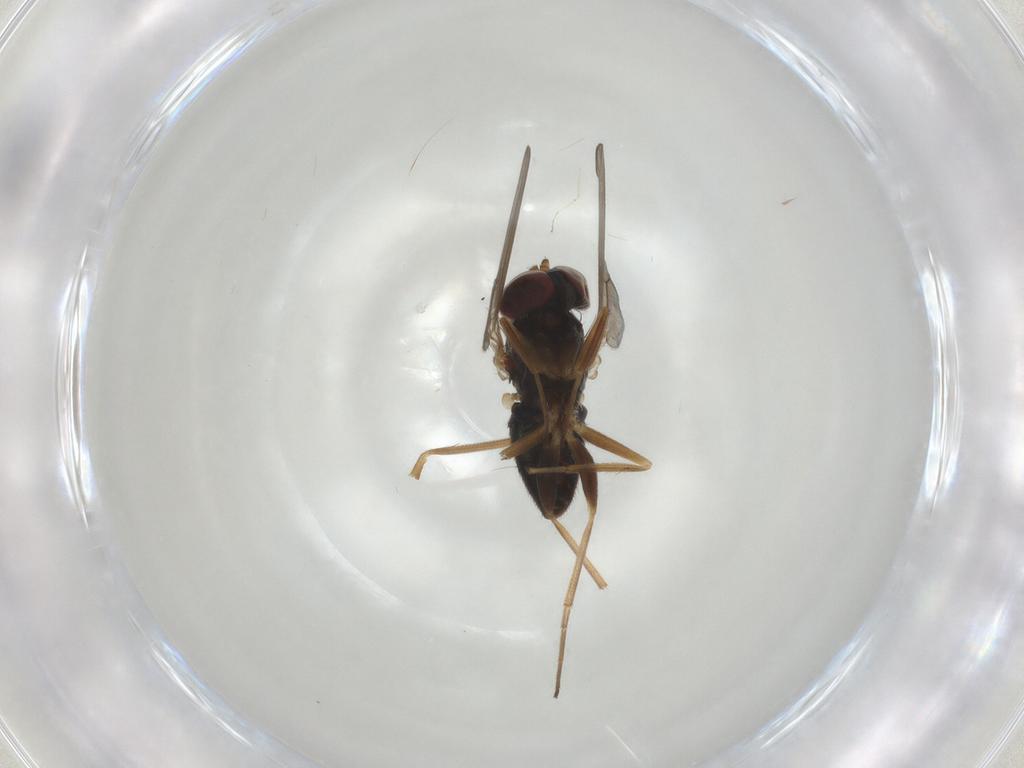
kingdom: Animalia
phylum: Arthropoda
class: Insecta
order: Diptera
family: Dolichopodidae
